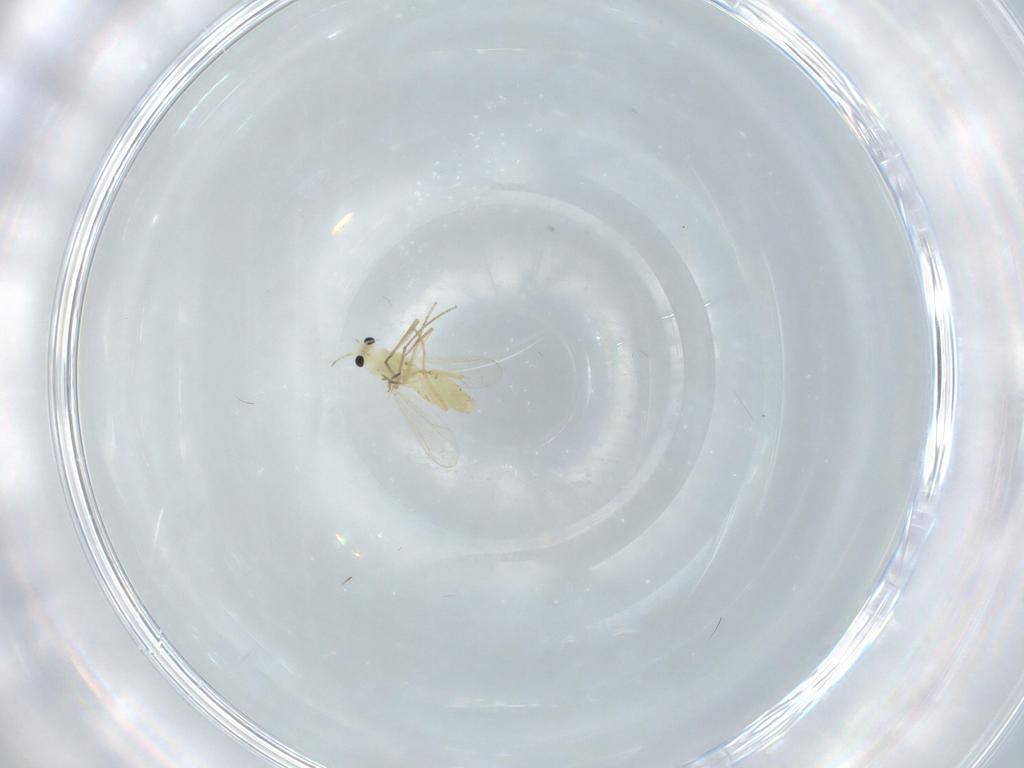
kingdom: Animalia
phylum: Arthropoda
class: Insecta
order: Diptera
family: Chironomidae
